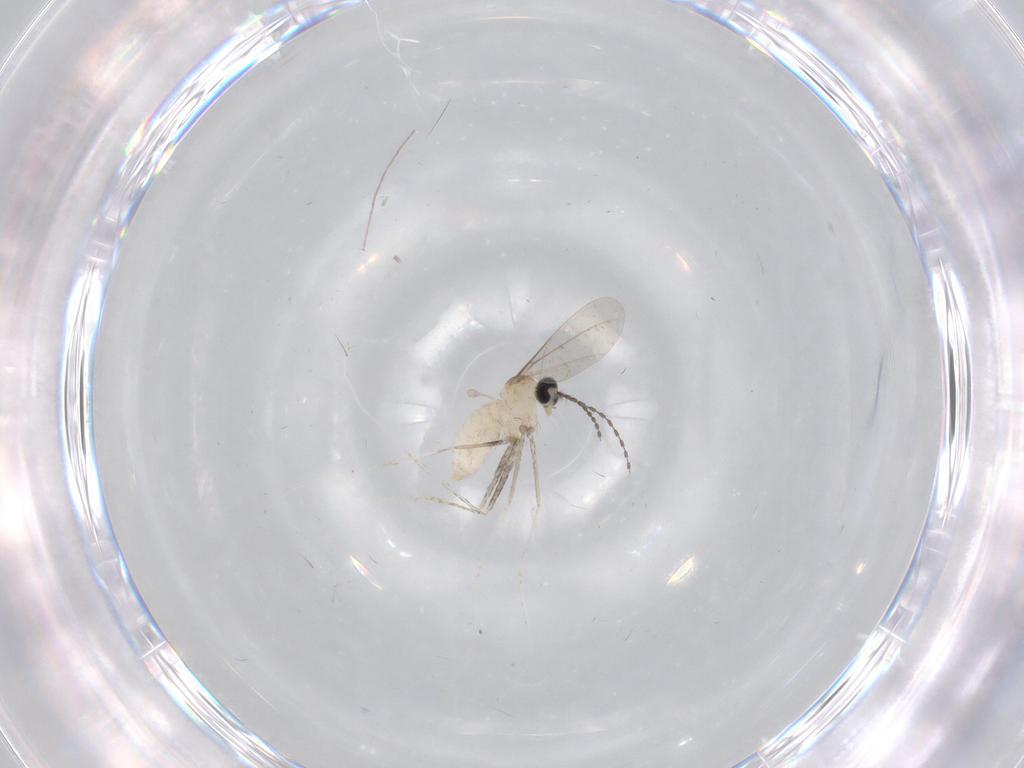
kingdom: Animalia
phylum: Arthropoda
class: Insecta
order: Diptera
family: Cecidomyiidae
